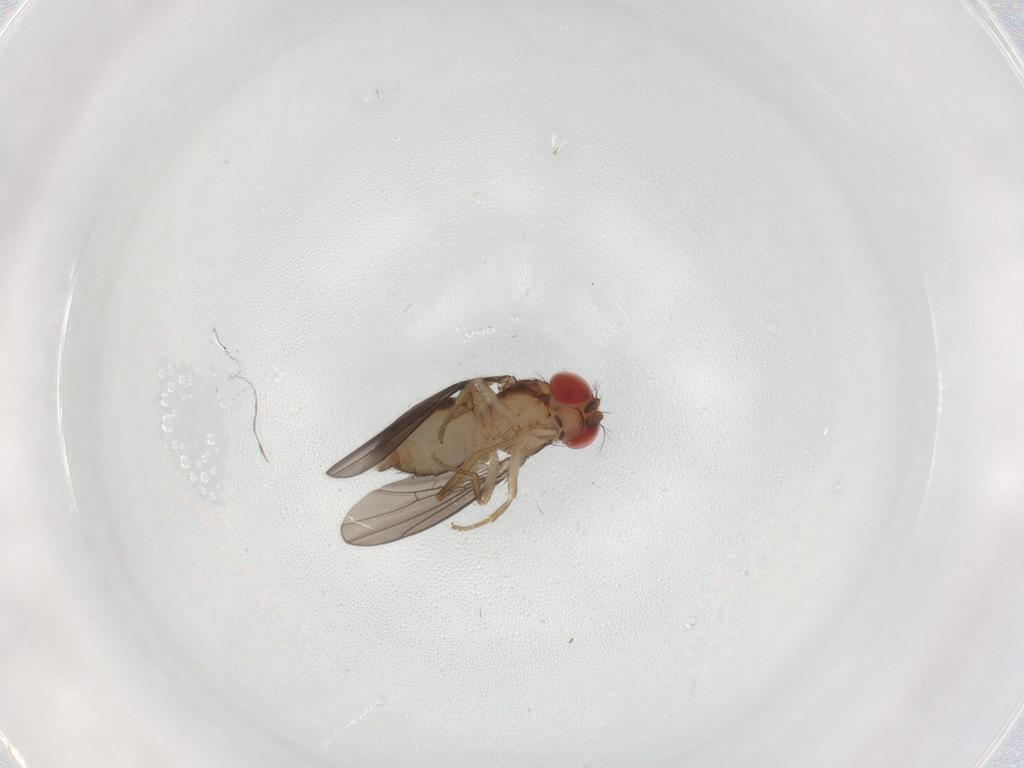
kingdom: Animalia
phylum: Arthropoda
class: Insecta
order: Diptera
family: Drosophilidae
